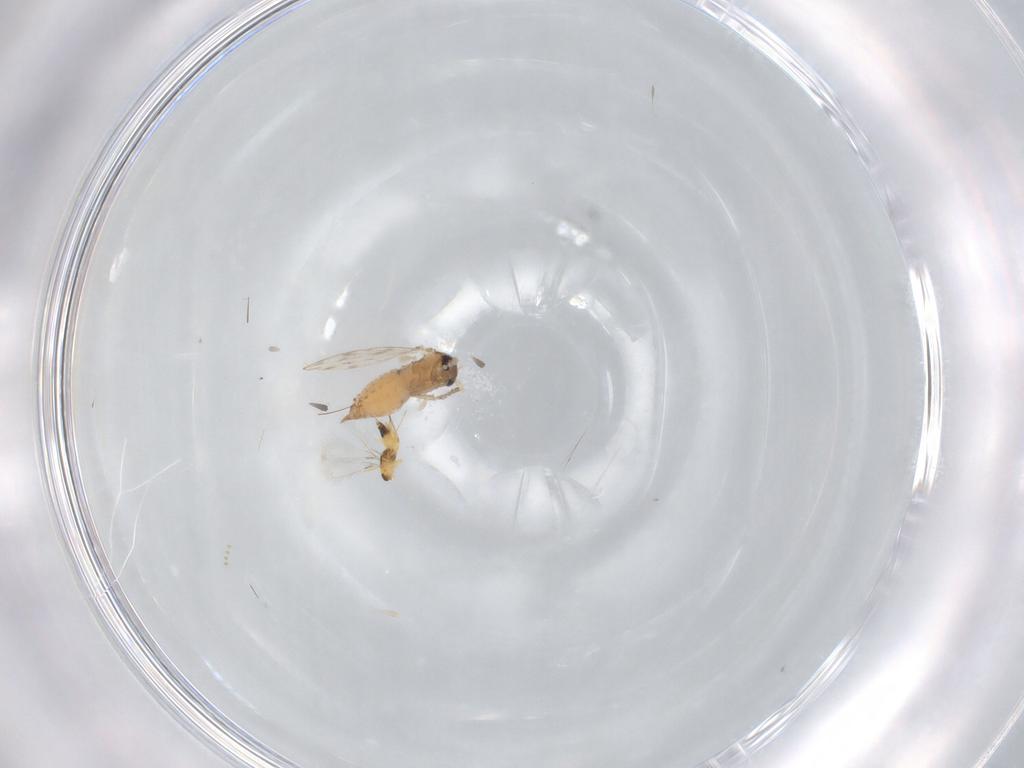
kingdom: Animalia
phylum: Arthropoda
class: Insecta
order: Diptera
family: Psychodidae
